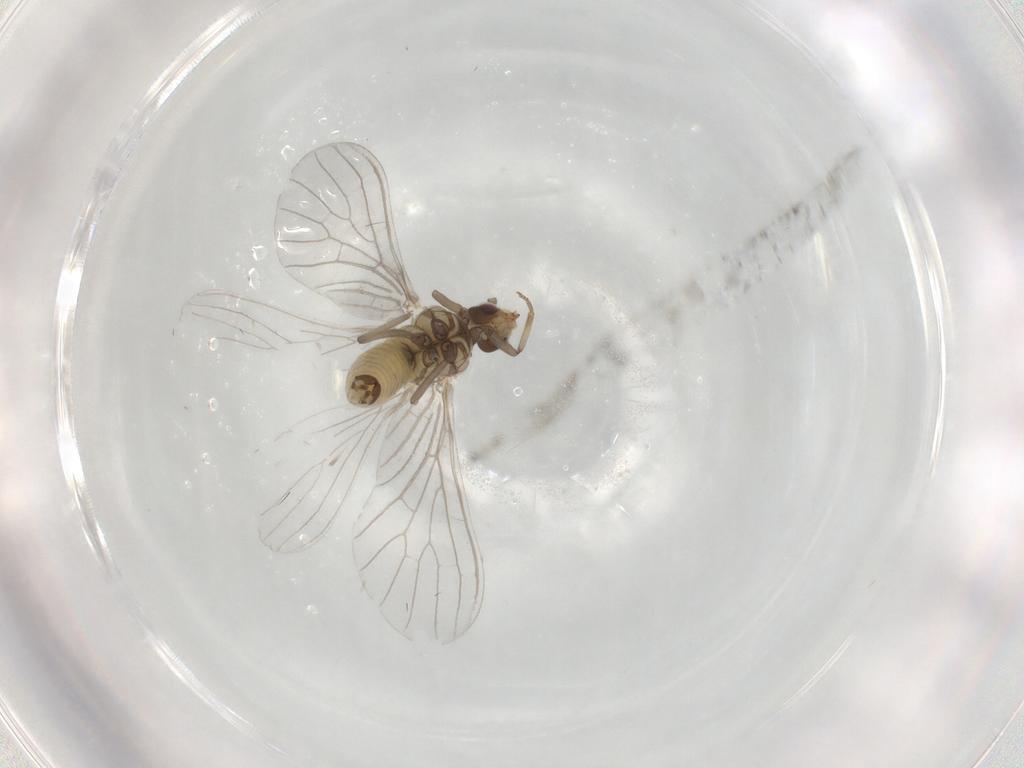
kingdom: Animalia
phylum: Arthropoda
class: Insecta
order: Neuroptera
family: Coniopterygidae
